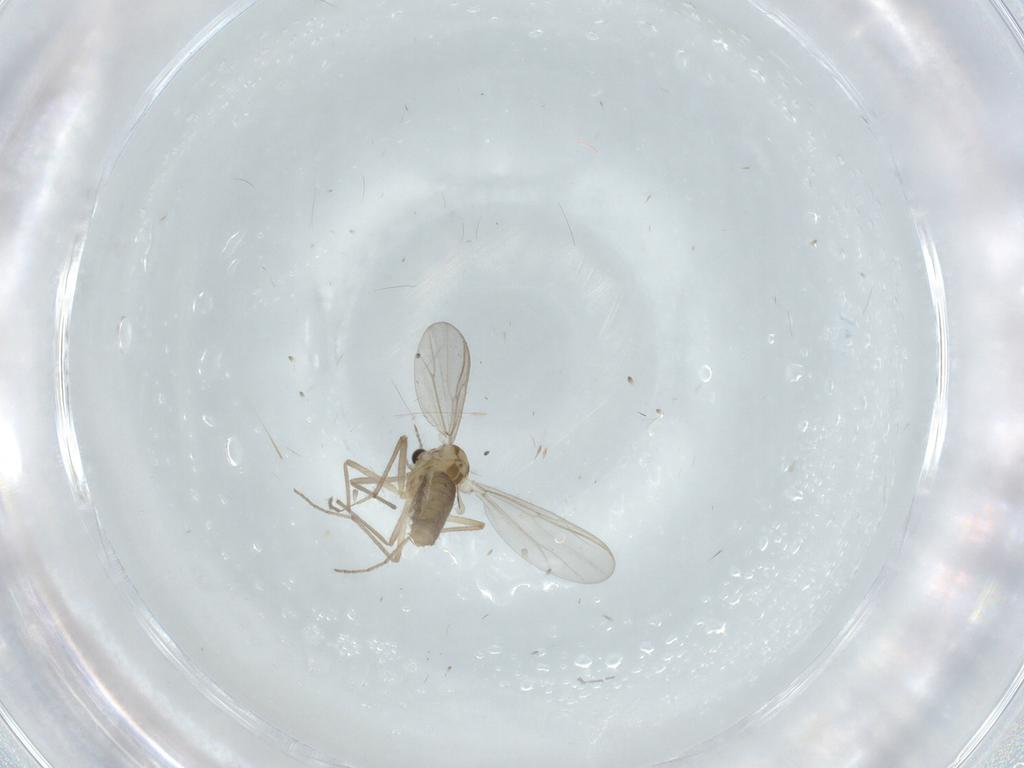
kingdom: Animalia
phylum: Arthropoda
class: Insecta
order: Diptera
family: Chironomidae
